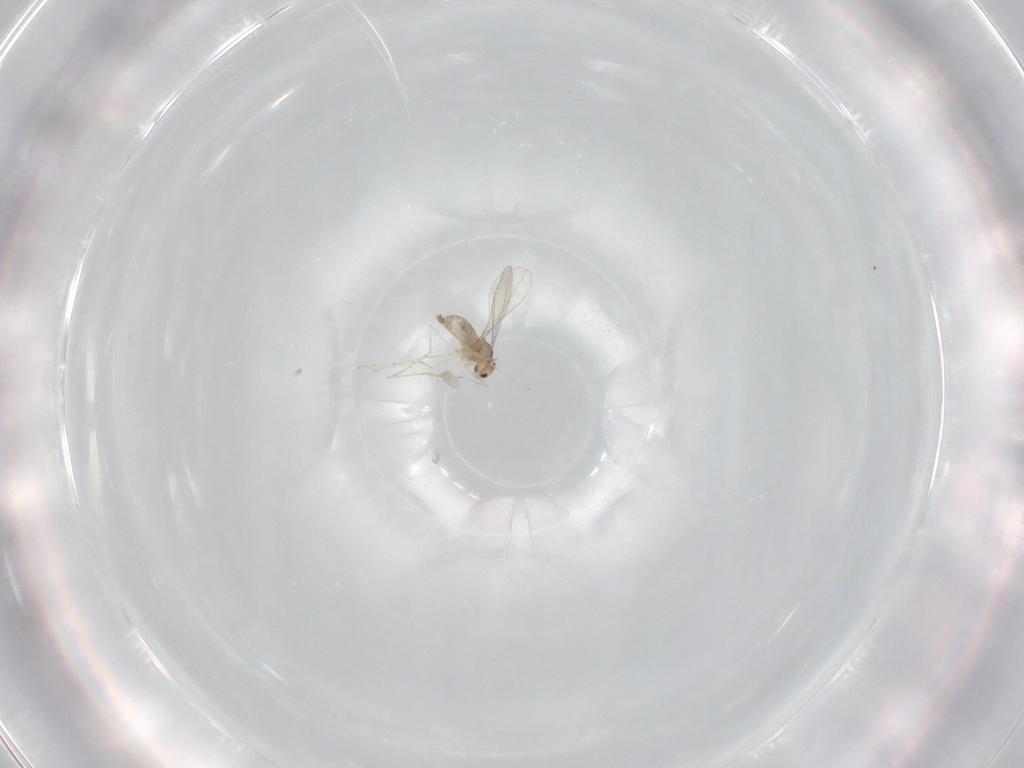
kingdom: Animalia
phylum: Arthropoda
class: Insecta
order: Diptera
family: Cecidomyiidae
